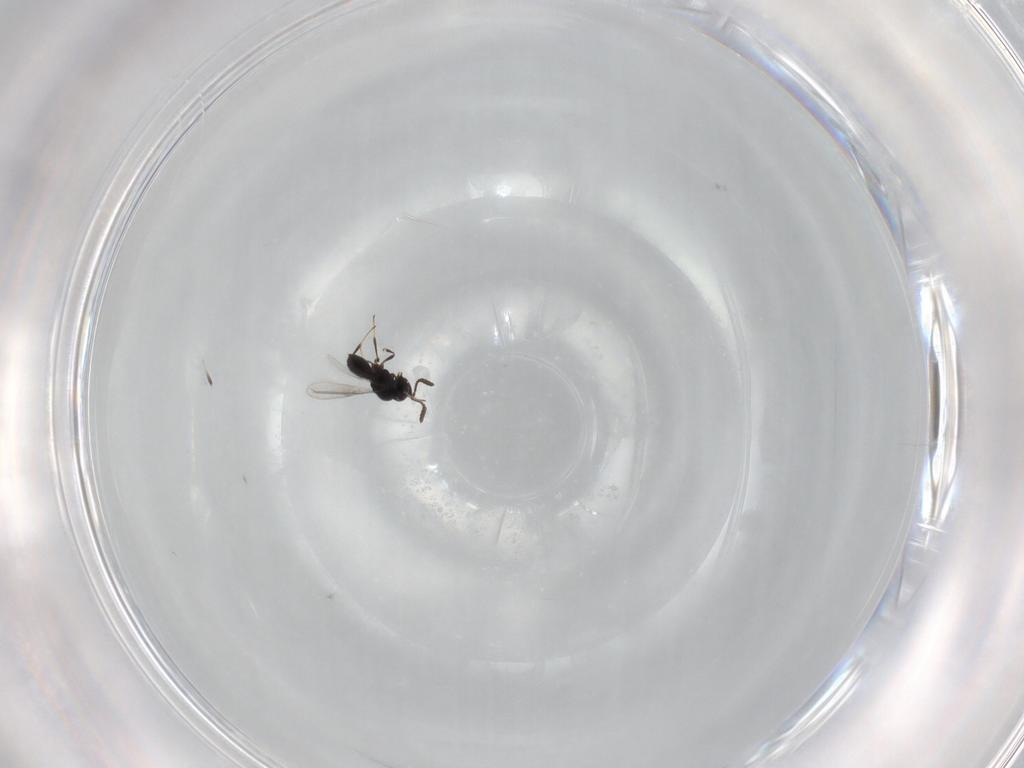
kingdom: Animalia
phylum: Arthropoda
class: Insecta
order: Hymenoptera
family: Scelionidae
